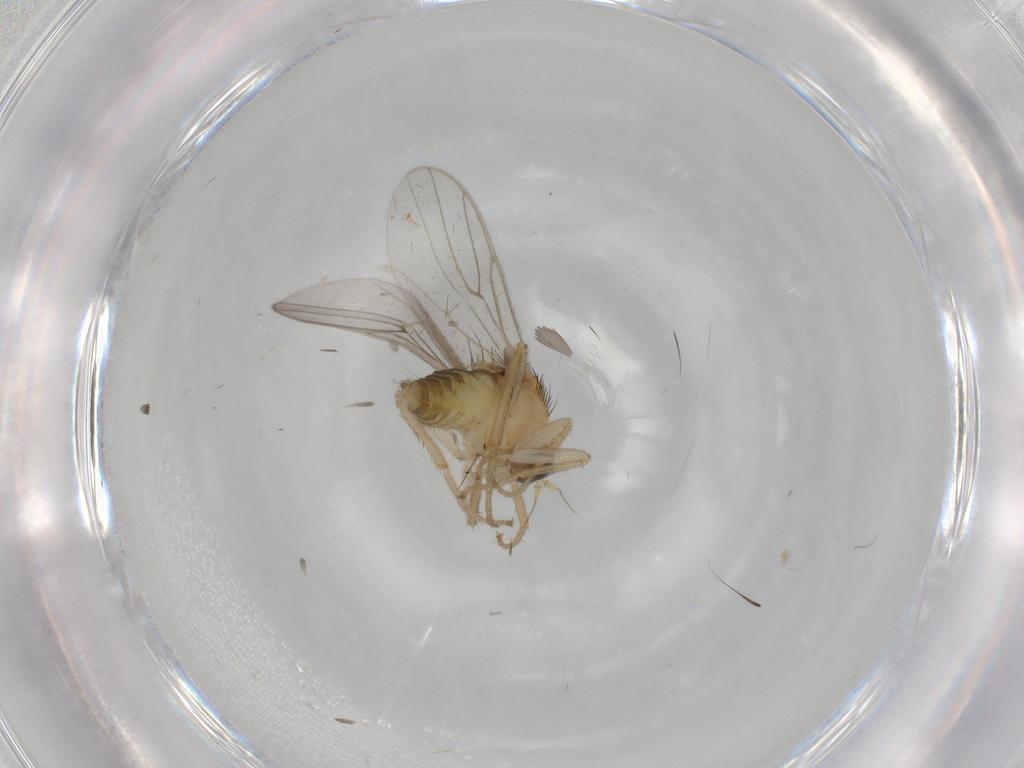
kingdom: Animalia
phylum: Arthropoda
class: Insecta
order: Diptera
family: Hybotidae
